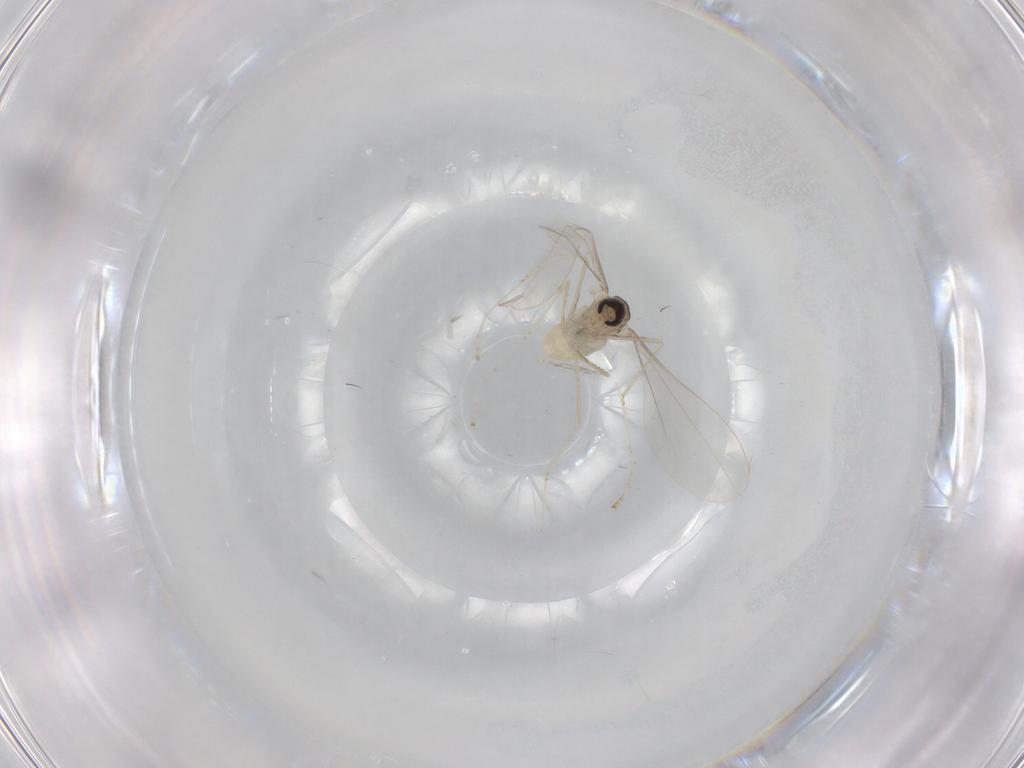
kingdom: Animalia
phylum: Arthropoda
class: Insecta
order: Diptera
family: Cecidomyiidae
